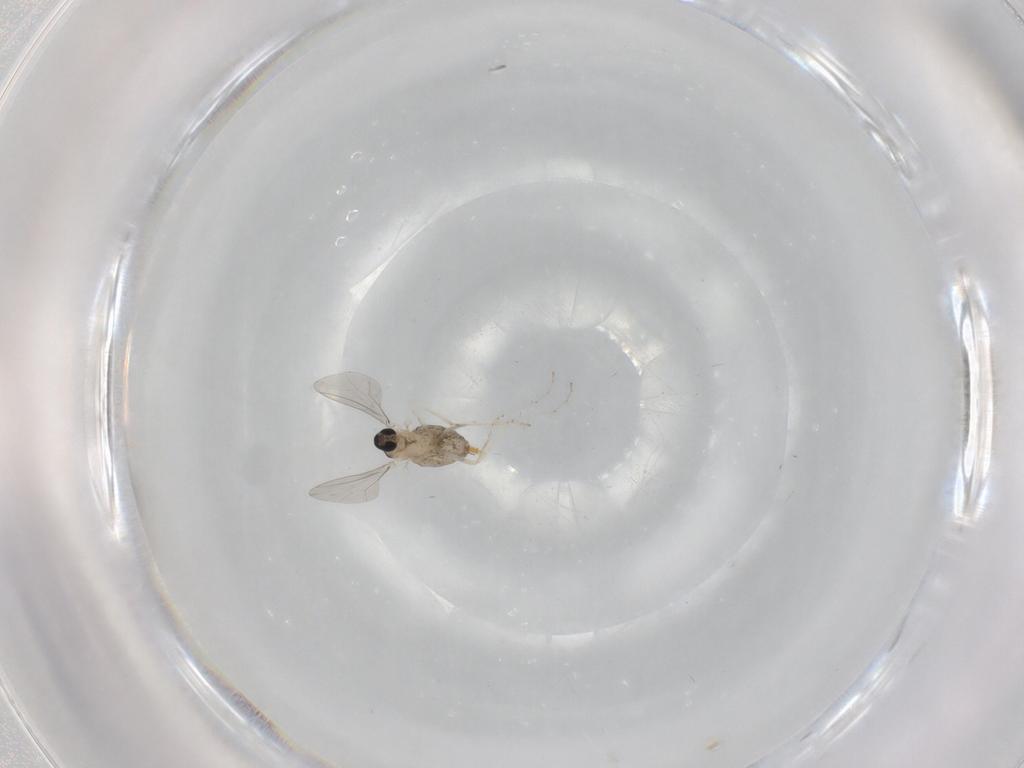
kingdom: Animalia
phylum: Arthropoda
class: Insecta
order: Diptera
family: Cecidomyiidae
